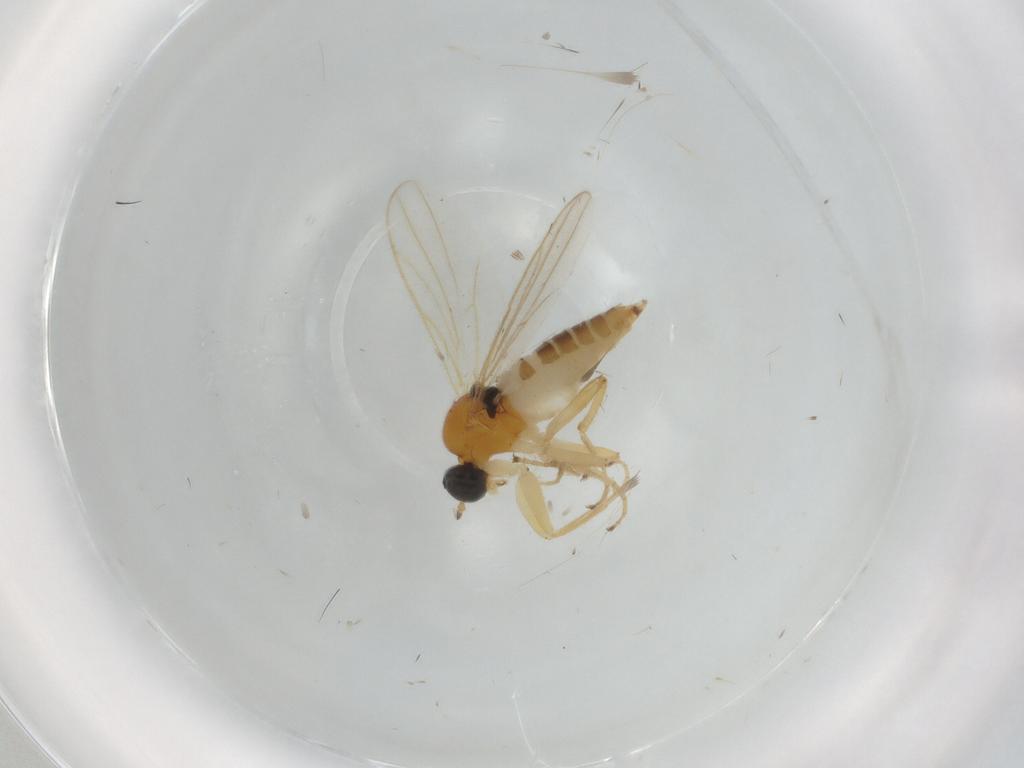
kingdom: Animalia
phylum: Arthropoda
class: Insecta
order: Diptera
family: Hybotidae
